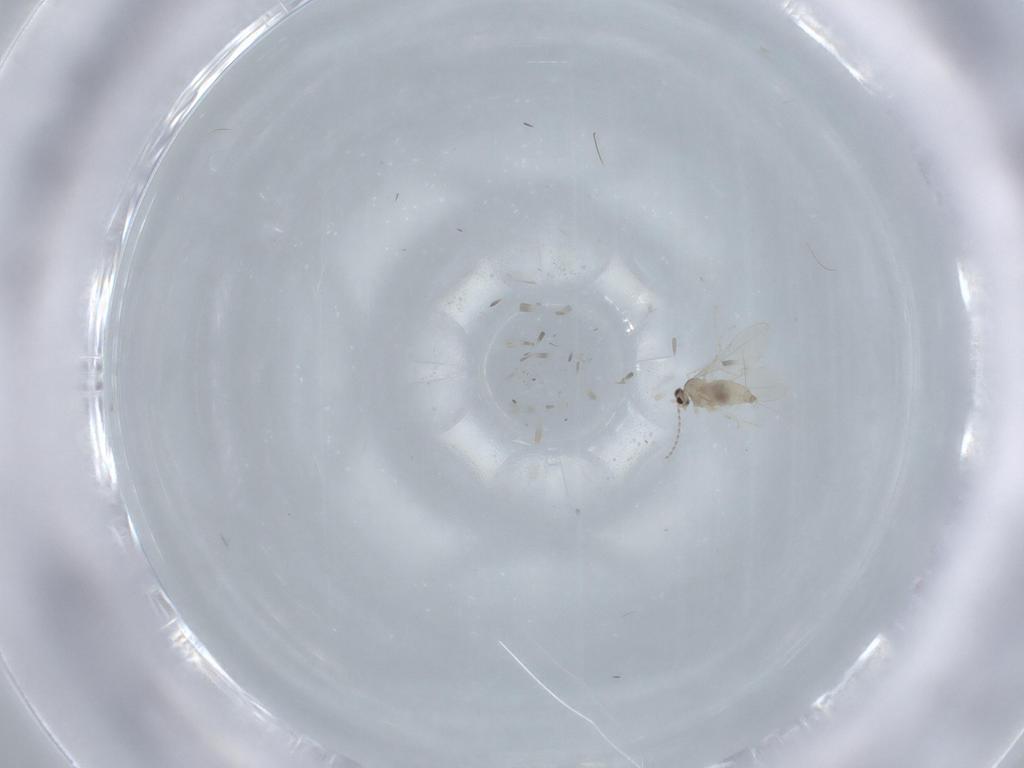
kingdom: Animalia
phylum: Arthropoda
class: Insecta
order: Diptera
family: Cecidomyiidae
